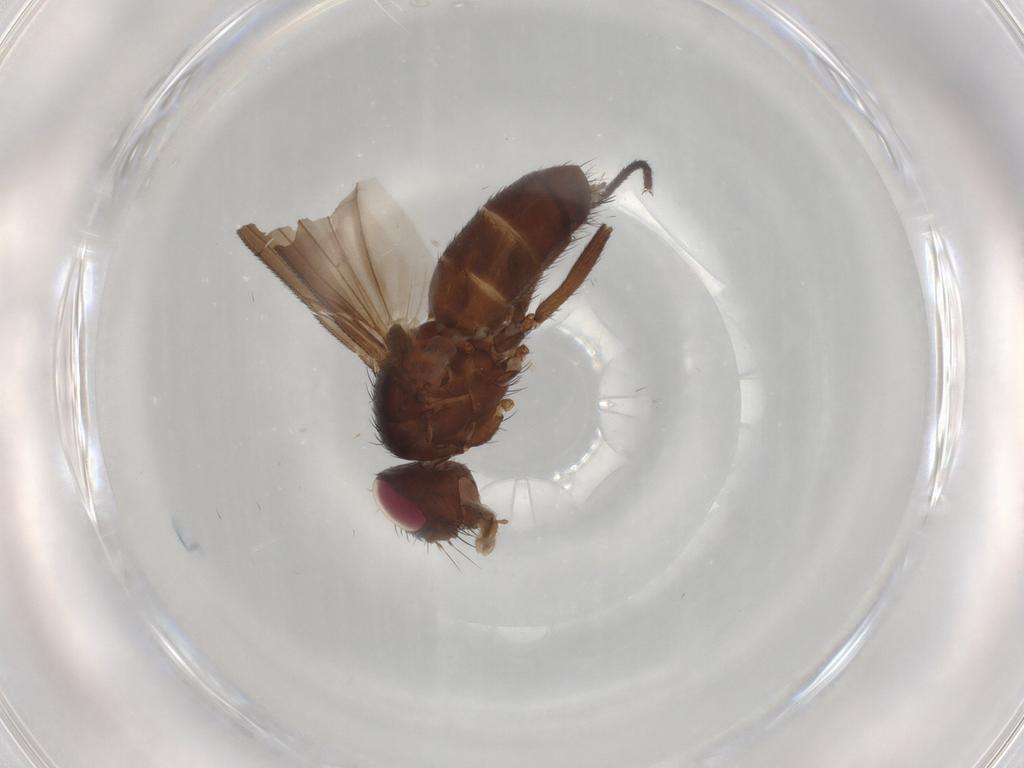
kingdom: Animalia
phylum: Arthropoda
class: Insecta
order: Diptera
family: Tachinidae
